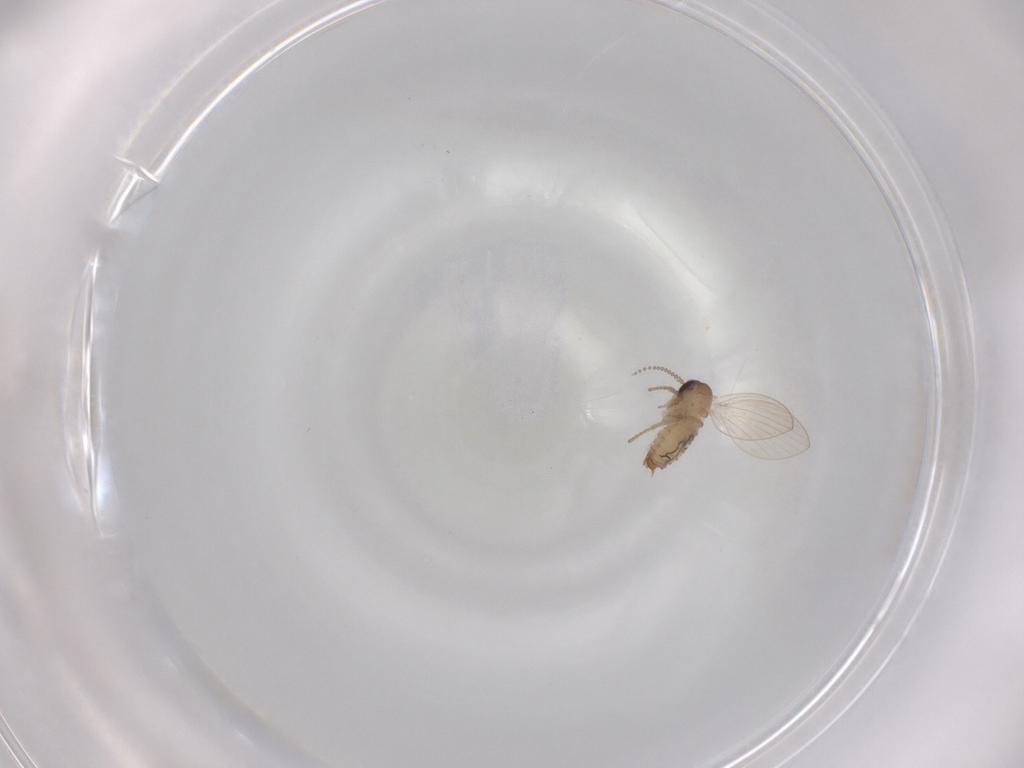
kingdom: Animalia
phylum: Arthropoda
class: Insecta
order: Diptera
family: Psychodidae
